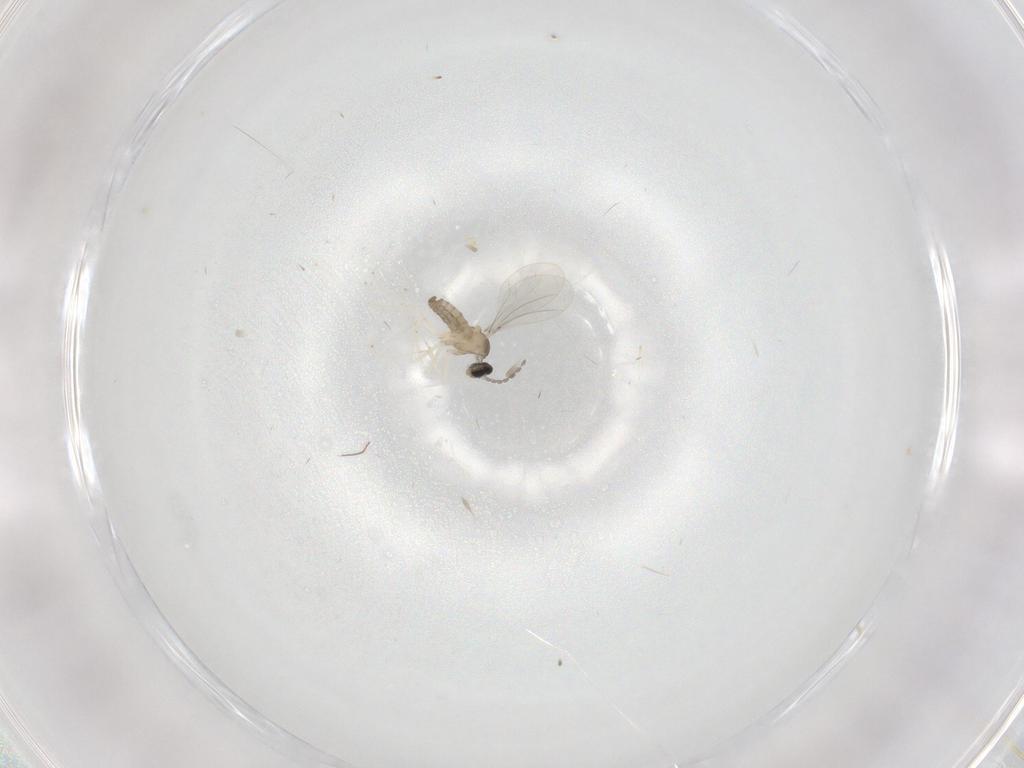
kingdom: Animalia
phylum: Arthropoda
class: Insecta
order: Diptera
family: Cecidomyiidae
